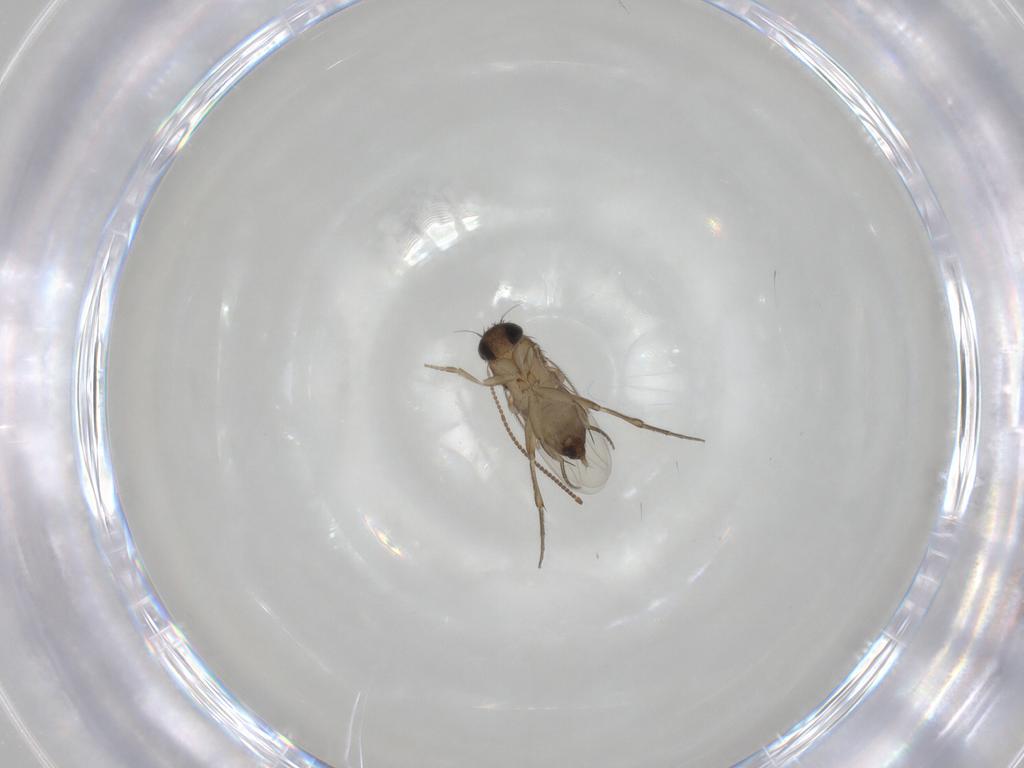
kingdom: Animalia
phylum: Arthropoda
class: Insecta
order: Diptera
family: Phoridae
